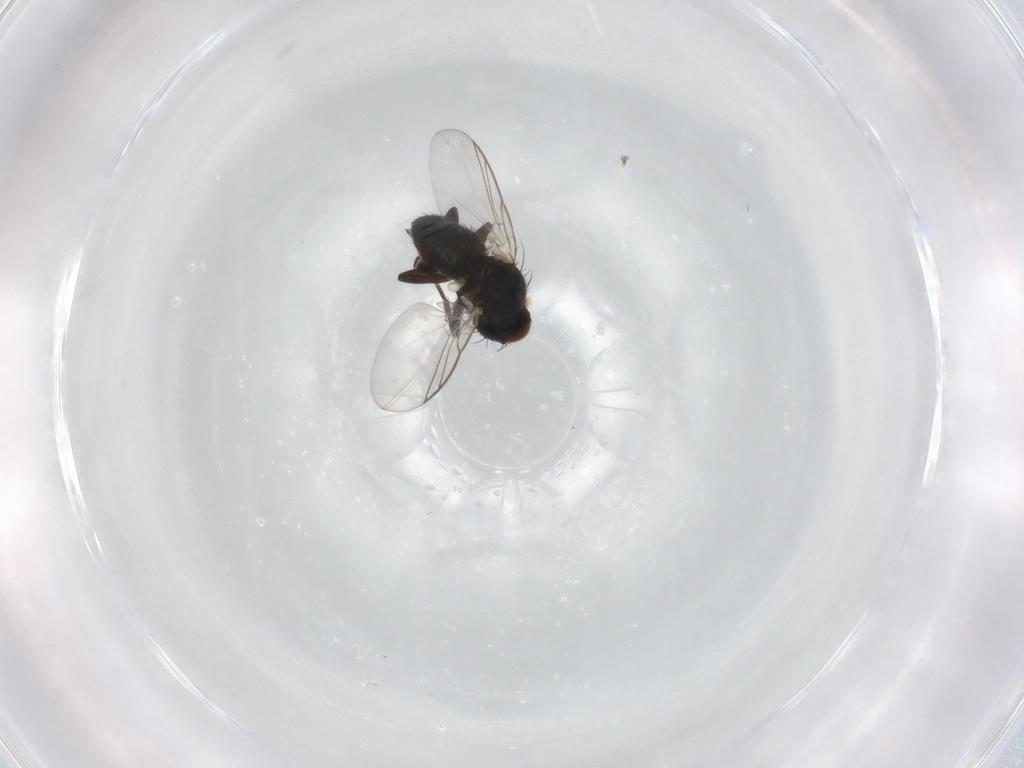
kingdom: Animalia
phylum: Arthropoda
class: Insecta
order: Diptera
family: Agromyzidae
